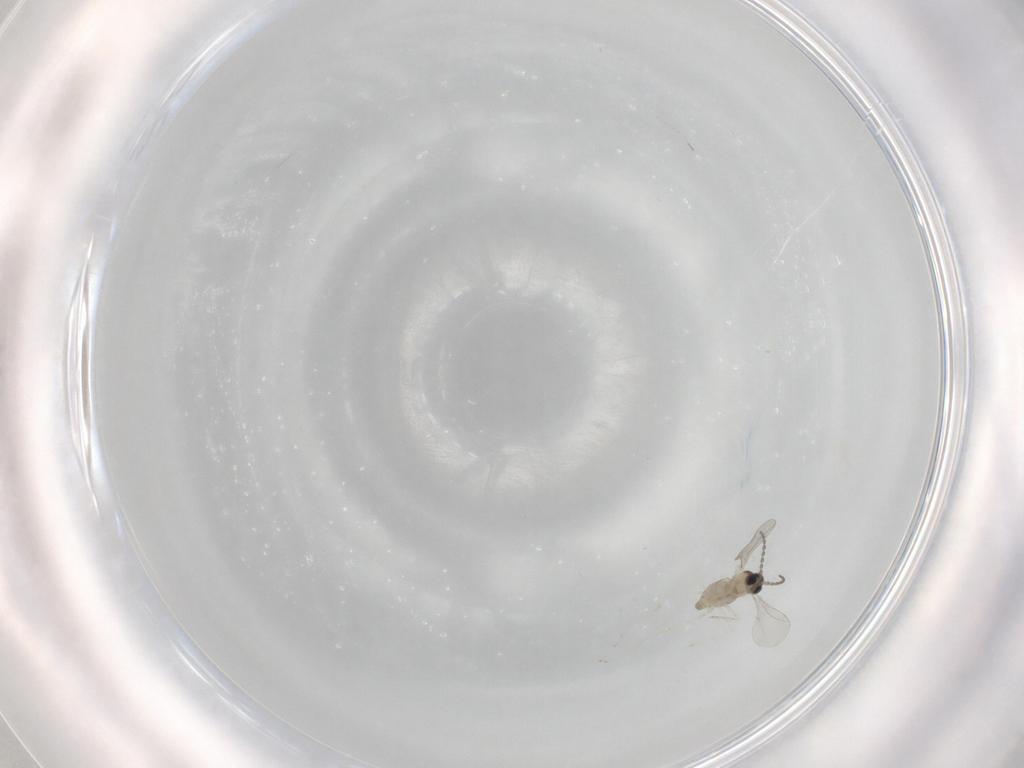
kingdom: Animalia
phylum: Arthropoda
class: Insecta
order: Diptera
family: Cecidomyiidae
